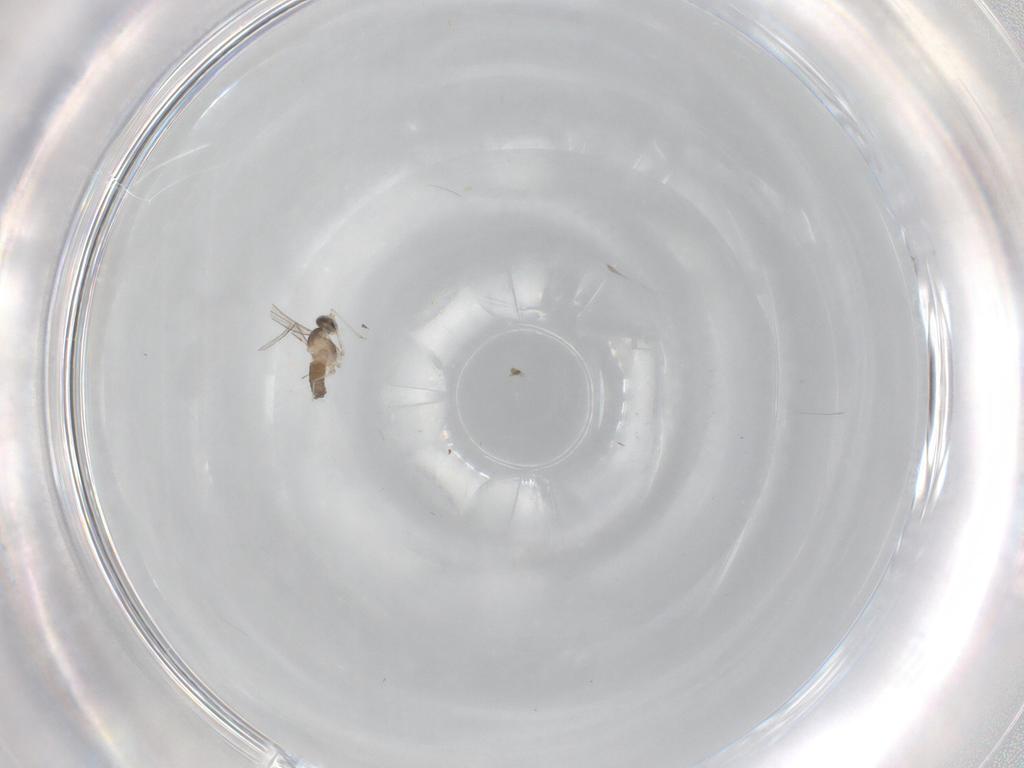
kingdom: Animalia
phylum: Arthropoda
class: Insecta
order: Diptera
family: Cecidomyiidae
